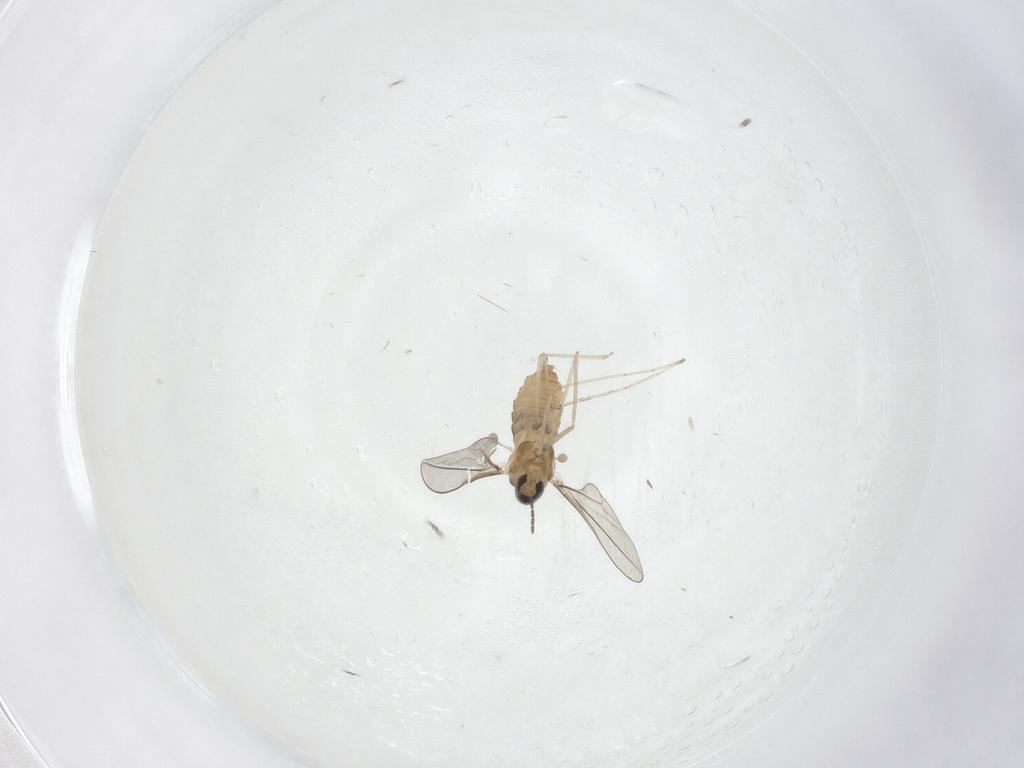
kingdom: Animalia
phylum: Arthropoda
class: Insecta
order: Diptera
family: Cecidomyiidae
